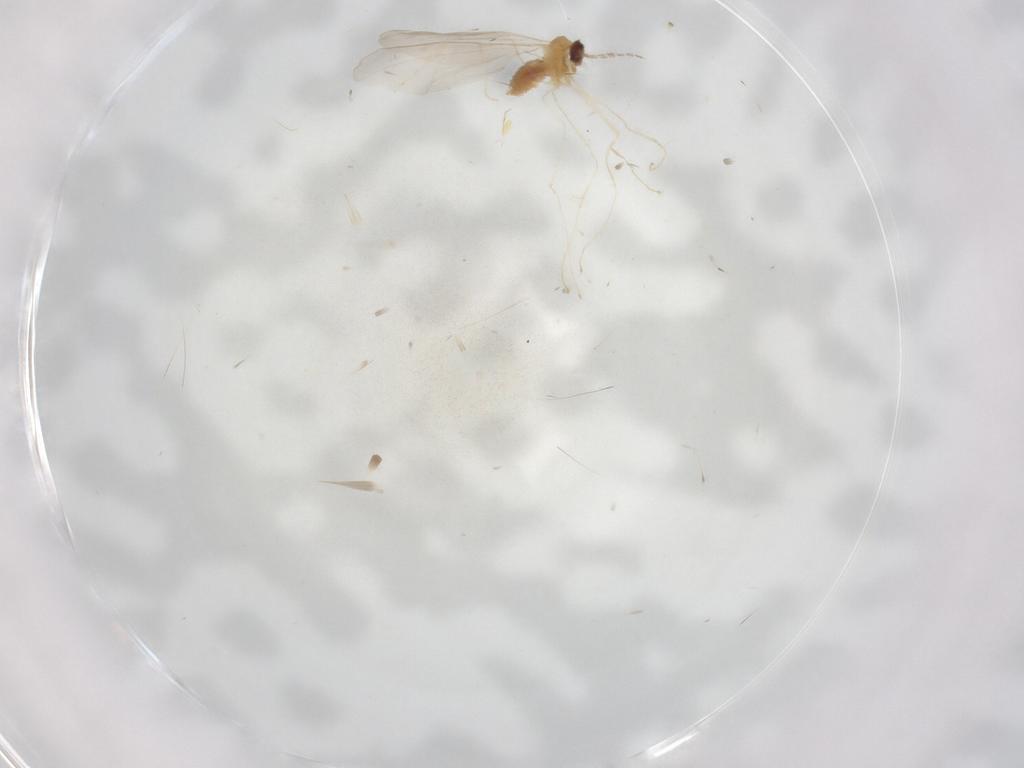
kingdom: Animalia
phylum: Arthropoda
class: Insecta
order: Diptera
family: Cecidomyiidae
